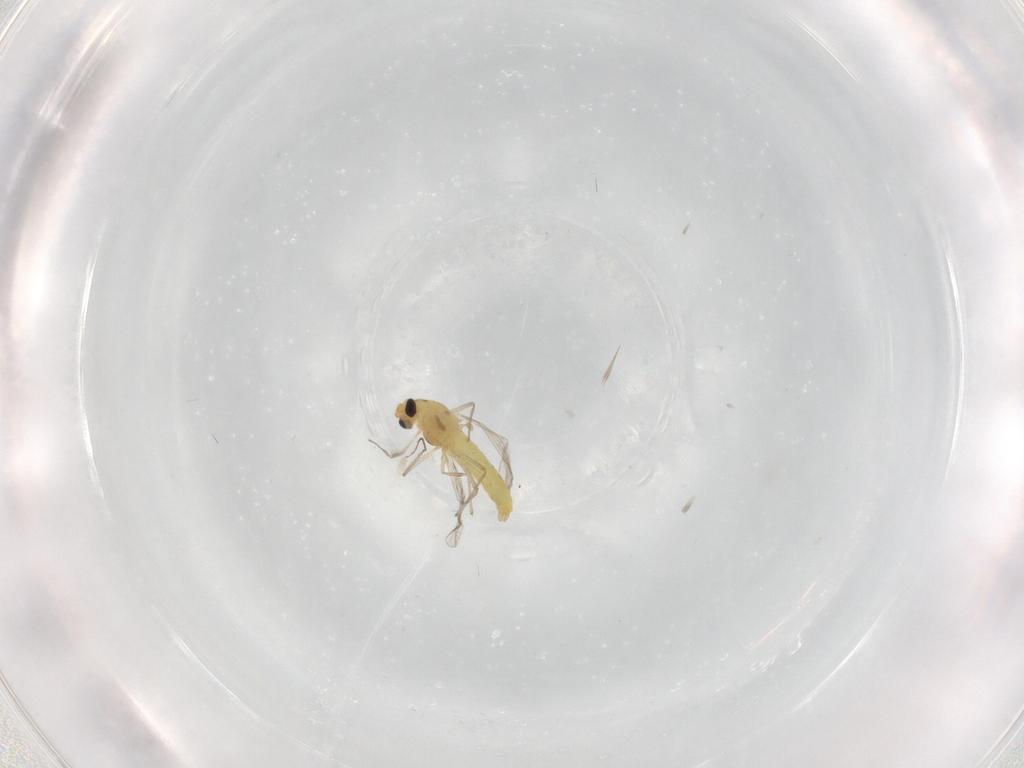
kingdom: Animalia
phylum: Arthropoda
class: Insecta
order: Diptera
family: Chironomidae
